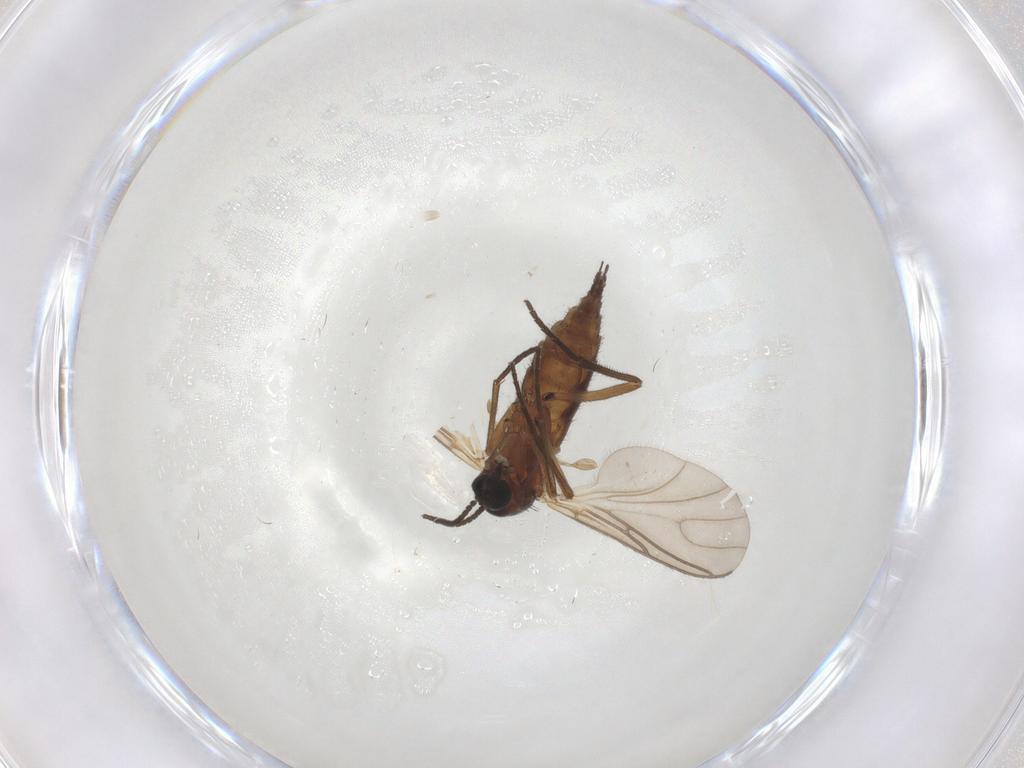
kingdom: Animalia
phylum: Arthropoda
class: Insecta
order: Diptera
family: Sciaridae
